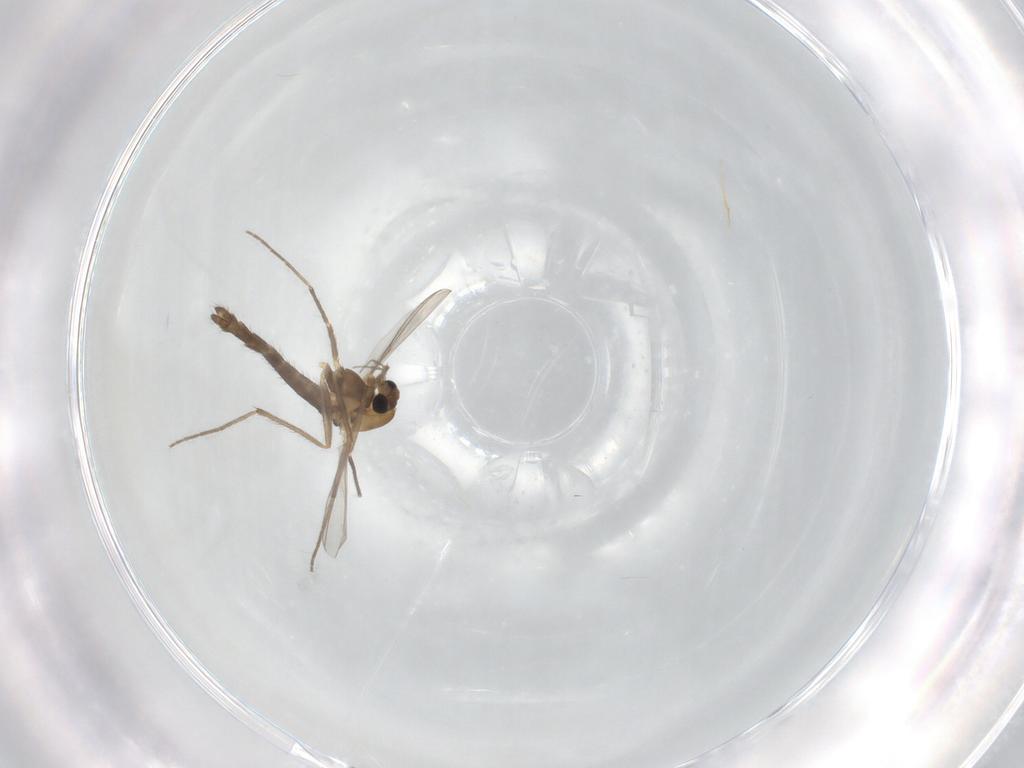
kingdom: Animalia
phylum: Arthropoda
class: Insecta
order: Diptera
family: Chironomidae
